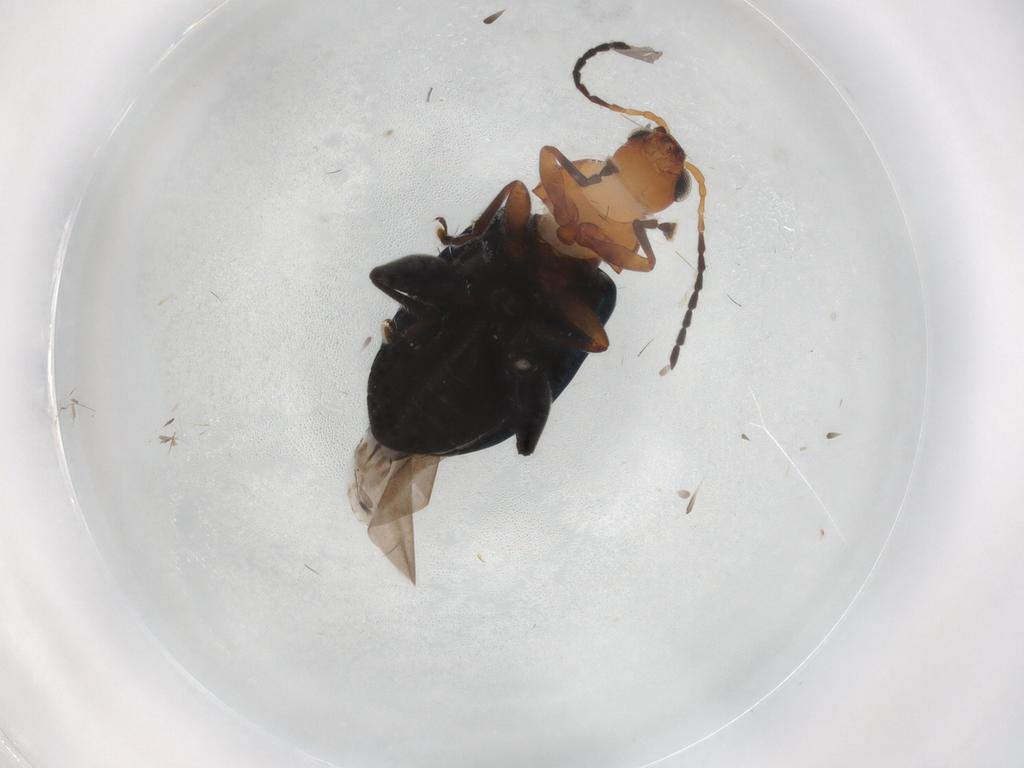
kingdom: Animalia
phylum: Arthropoda
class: Insecta
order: Coleoptera
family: Chrysomelidae
